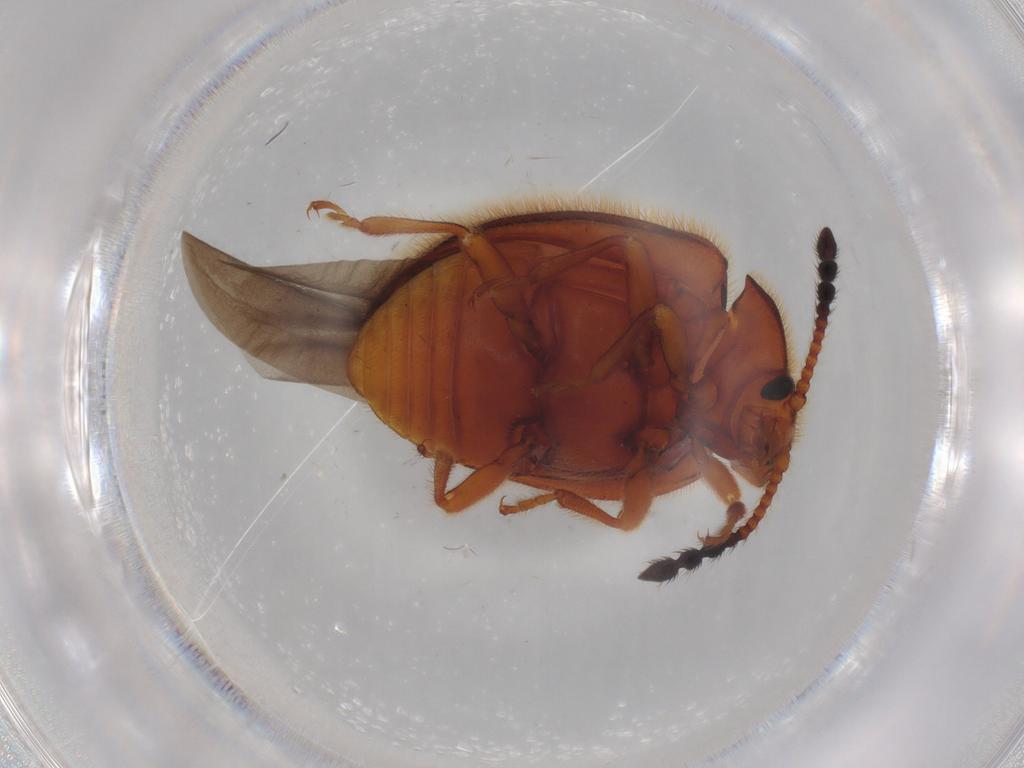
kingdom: Animalia
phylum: Arthropoda
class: Insecta
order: Coleoptera
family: Endomychidae
